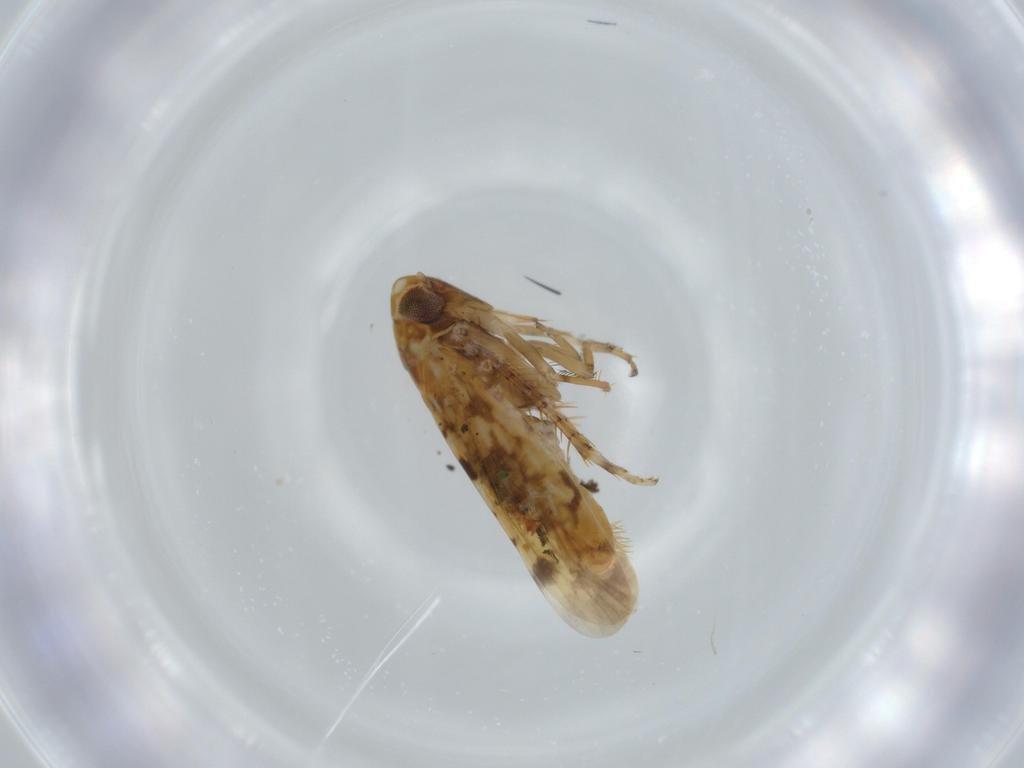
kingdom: Animalia
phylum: Arthropoda
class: Insecta
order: Hemiptera
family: Cicadellidae
